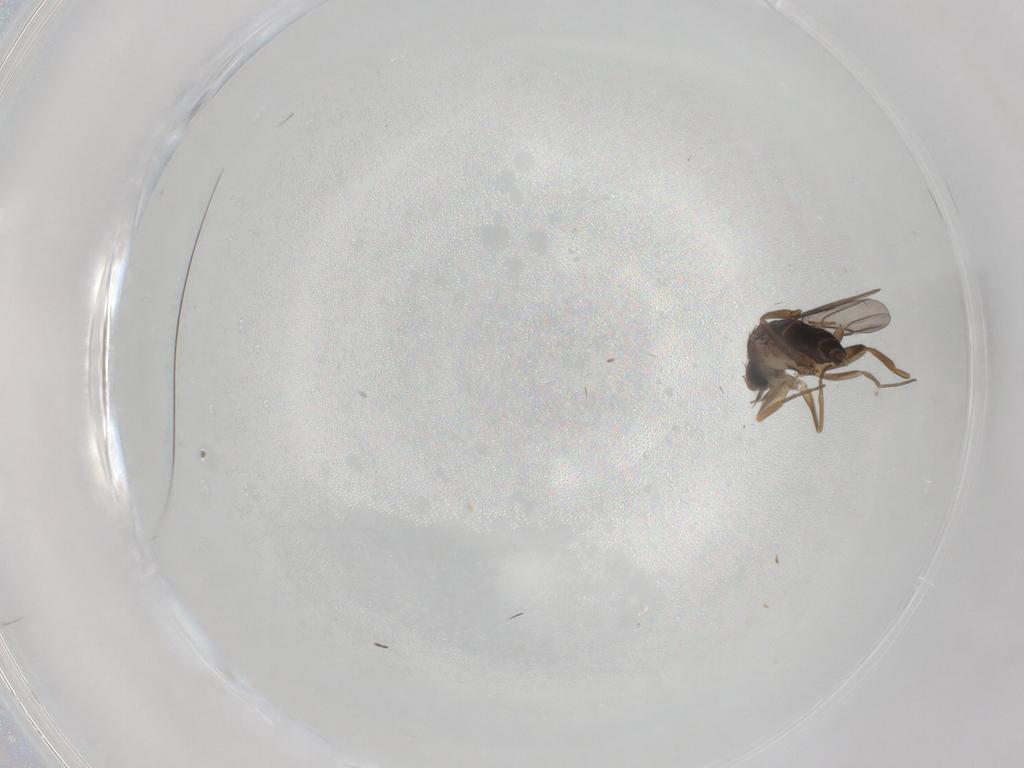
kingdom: Animalia
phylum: Arthropoda
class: Insecta
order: Diptera
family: Phoridae
